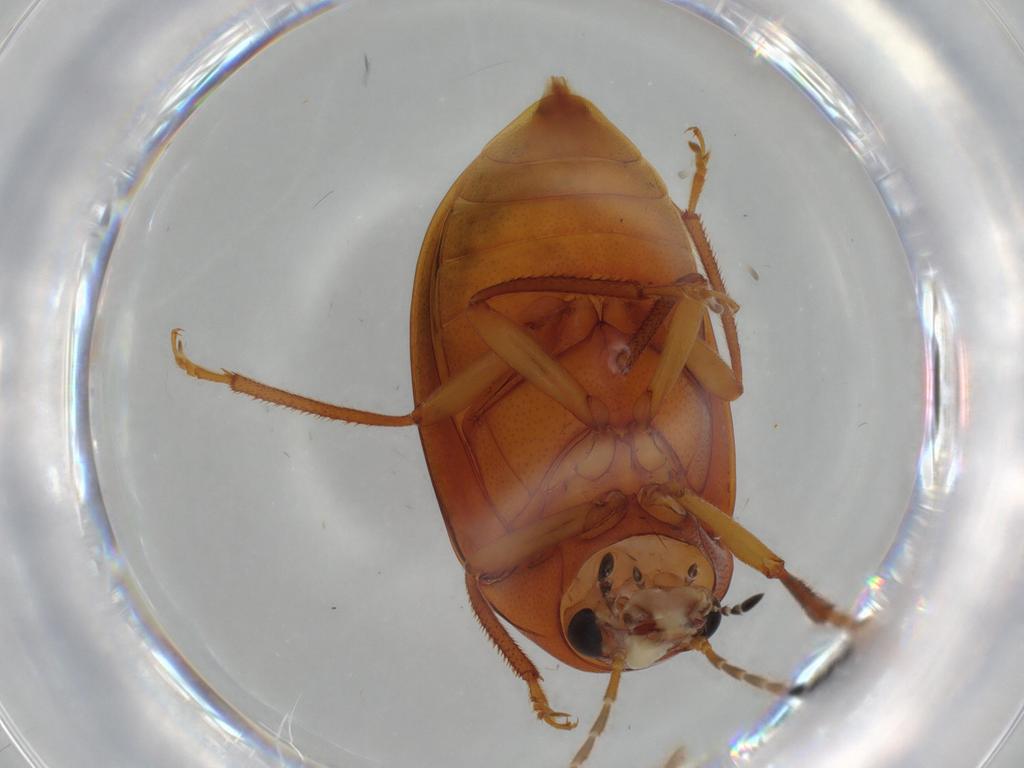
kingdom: Animalia
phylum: Arthropoda
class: Insecta
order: Coleoptera
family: Ptilodactylidae
